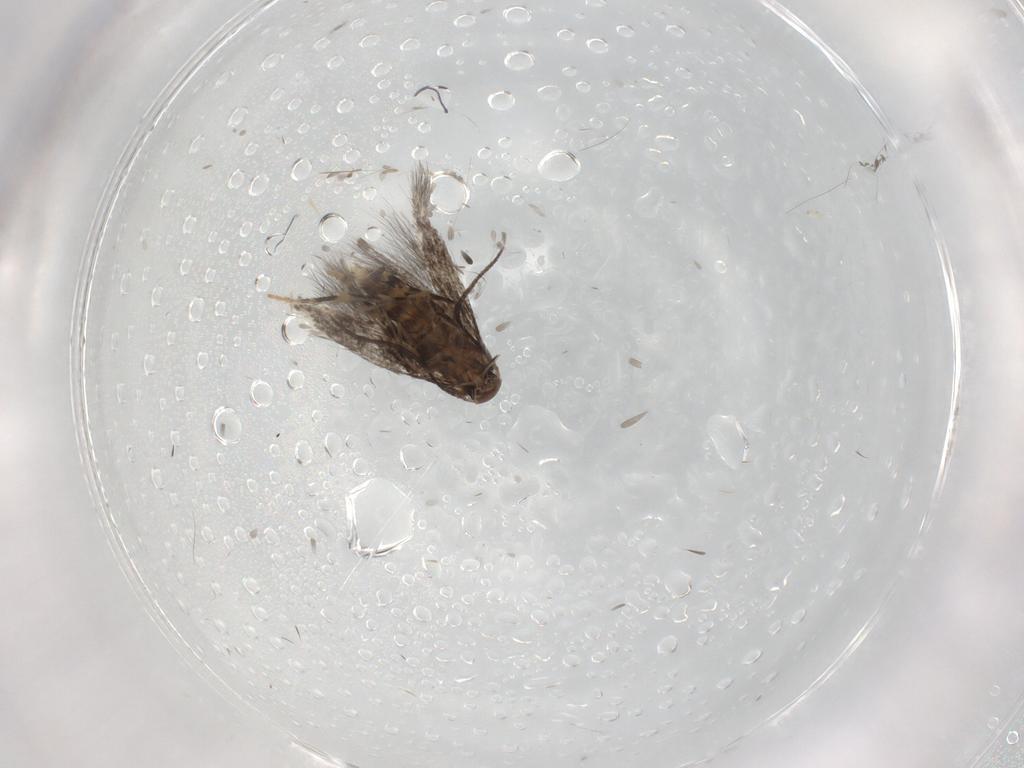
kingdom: Animalia
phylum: Arthropoda
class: Insecta
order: Lepidoptera
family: Elachistidae
